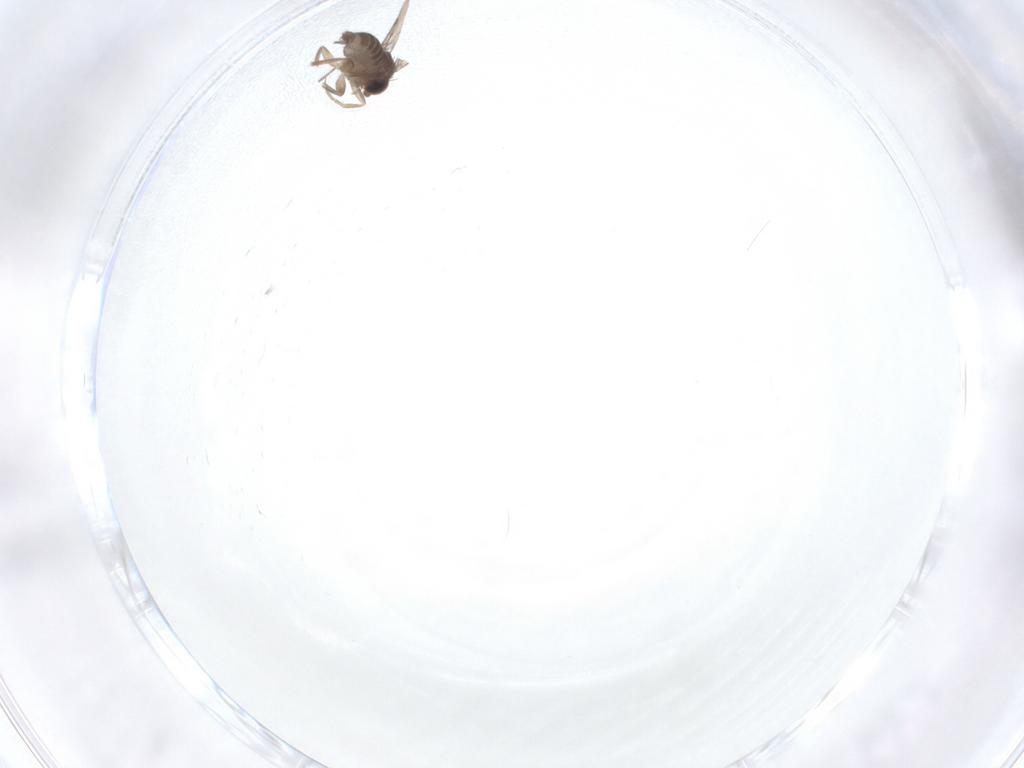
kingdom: Animalia
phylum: Arthropoda
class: Insecta
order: Diptera
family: Phoridae
